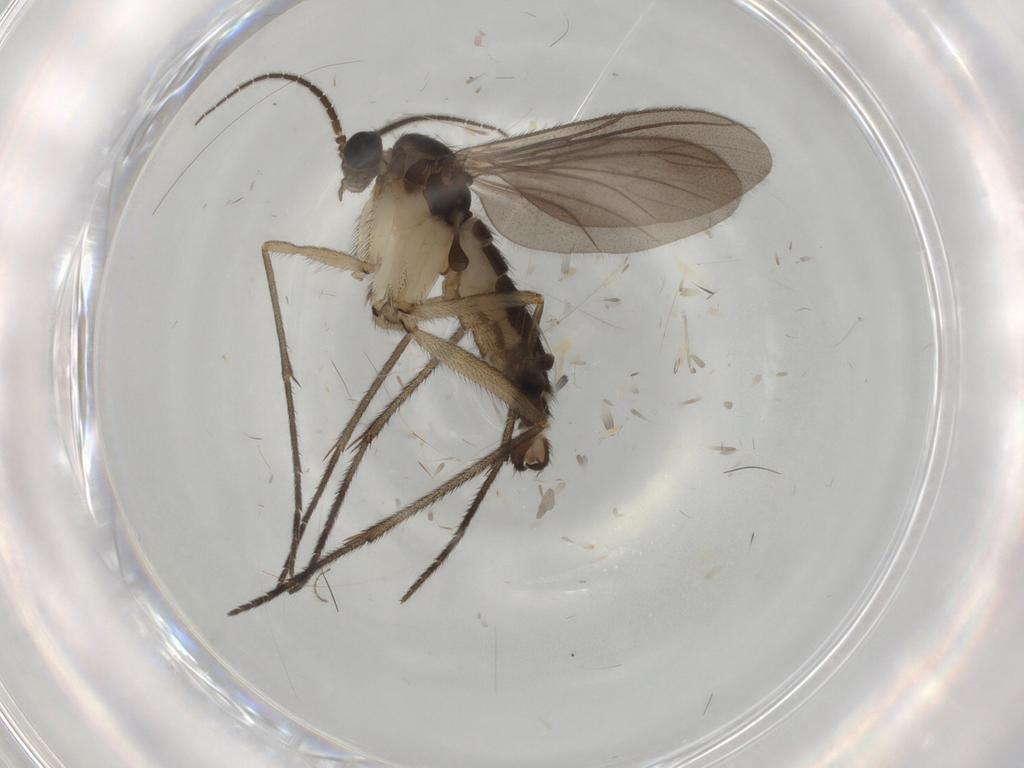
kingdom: Animalia
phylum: Arthropoda
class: Insecta
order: Diptera
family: Sciaridae
